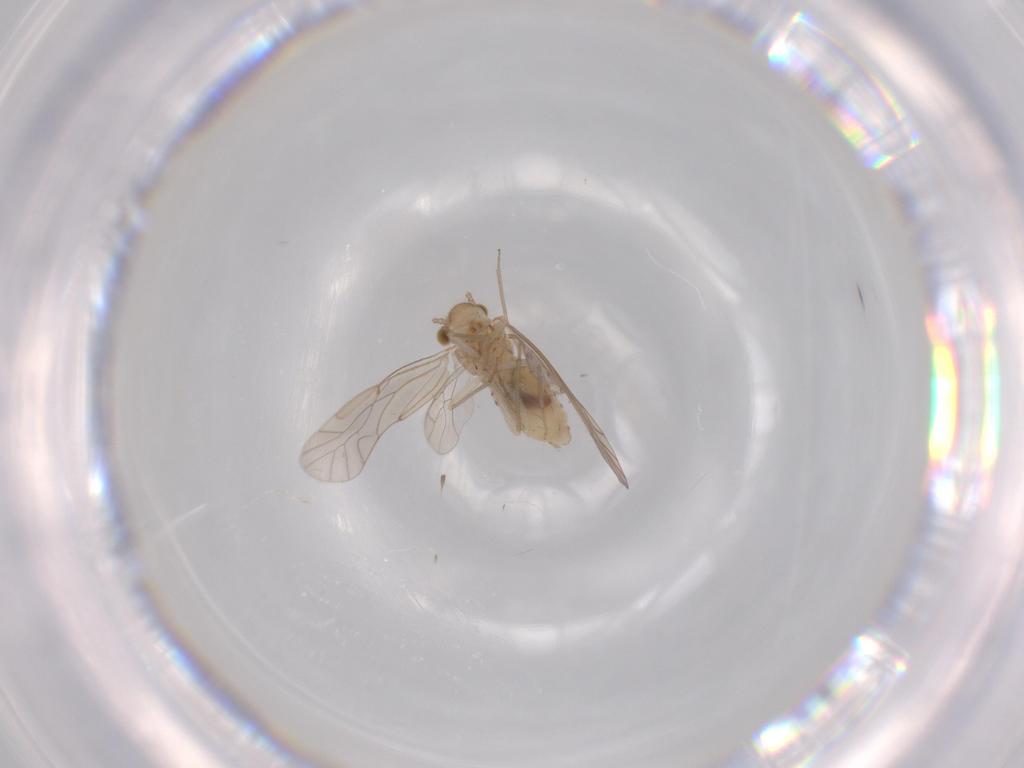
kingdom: Animalia
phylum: Arthropoda
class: Insecta
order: Psocodea
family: Lachesillidae
